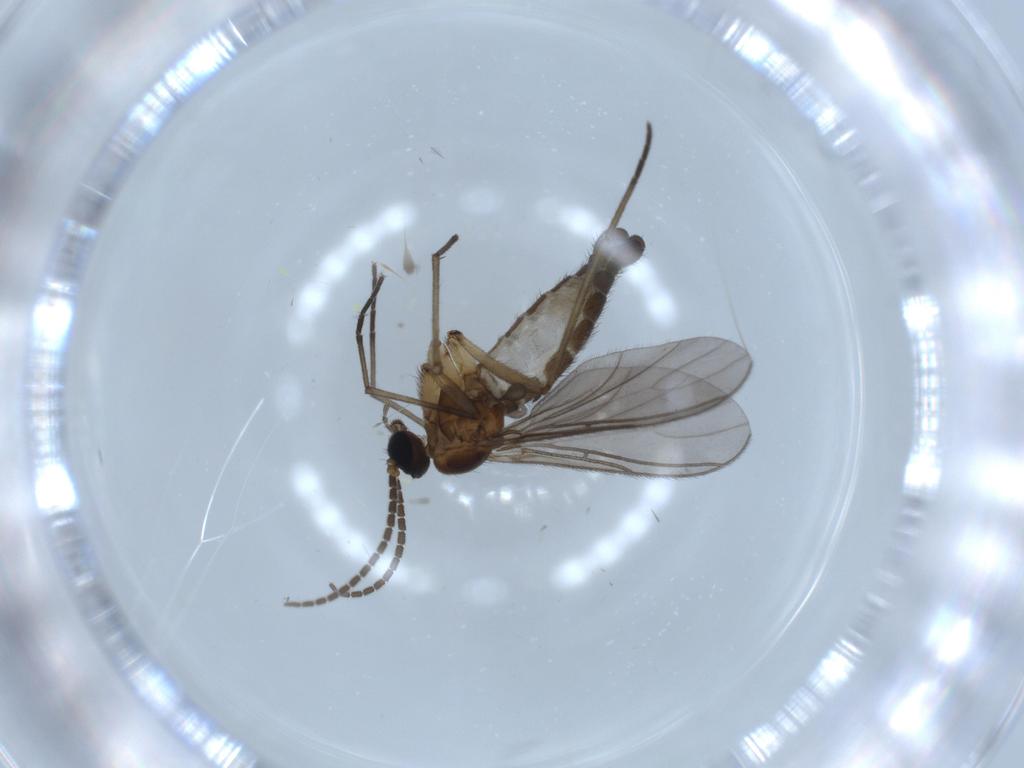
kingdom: Animalia
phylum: Arthropoda
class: Insecta
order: Diptera
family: Sciaridae
